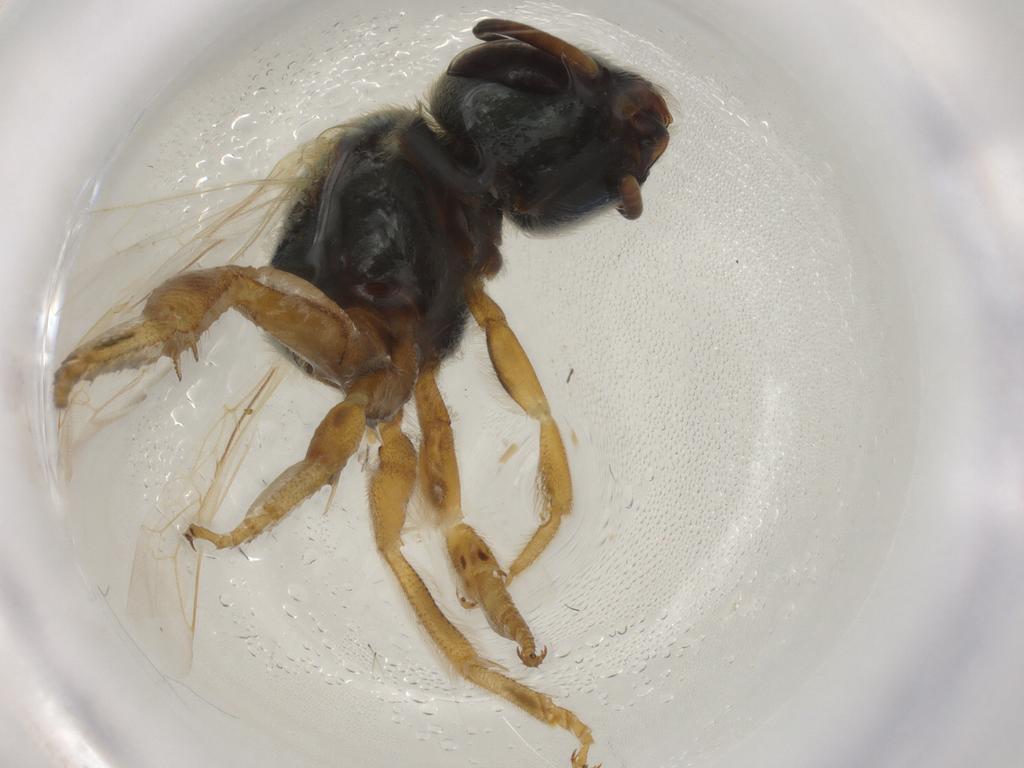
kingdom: Animalia
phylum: Arthropoda
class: Insecta
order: Hymenoptera
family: Halictidae
